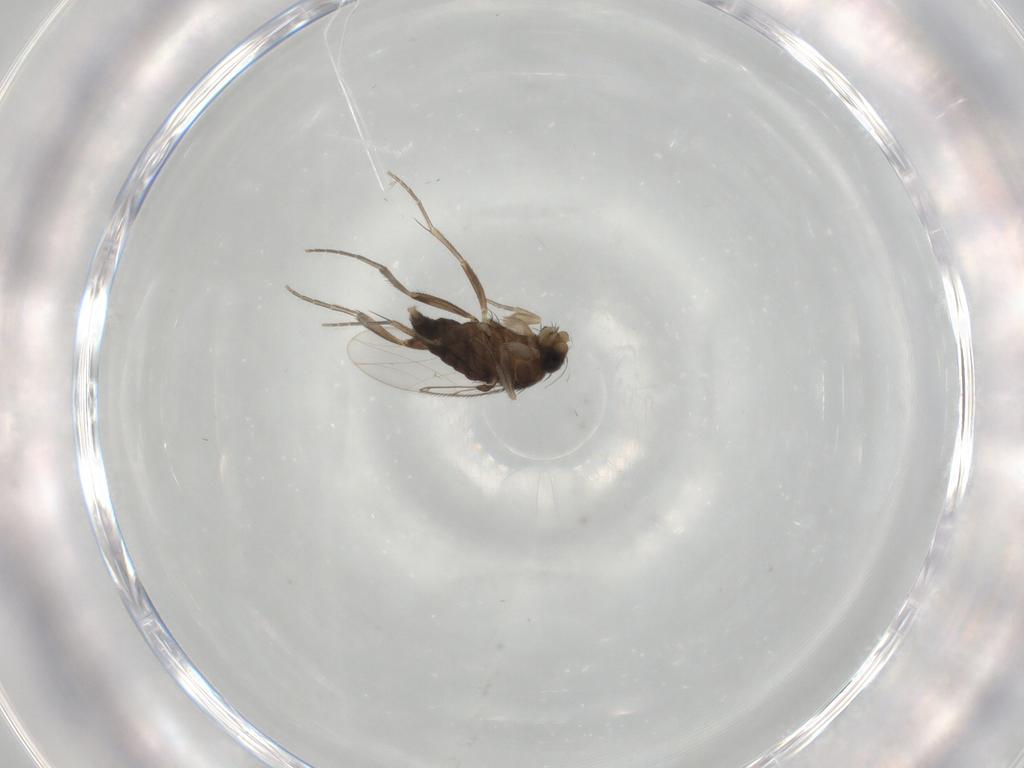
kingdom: Animalia
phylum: Arthropoda
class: Insecta
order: Diptera
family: Phoridae
